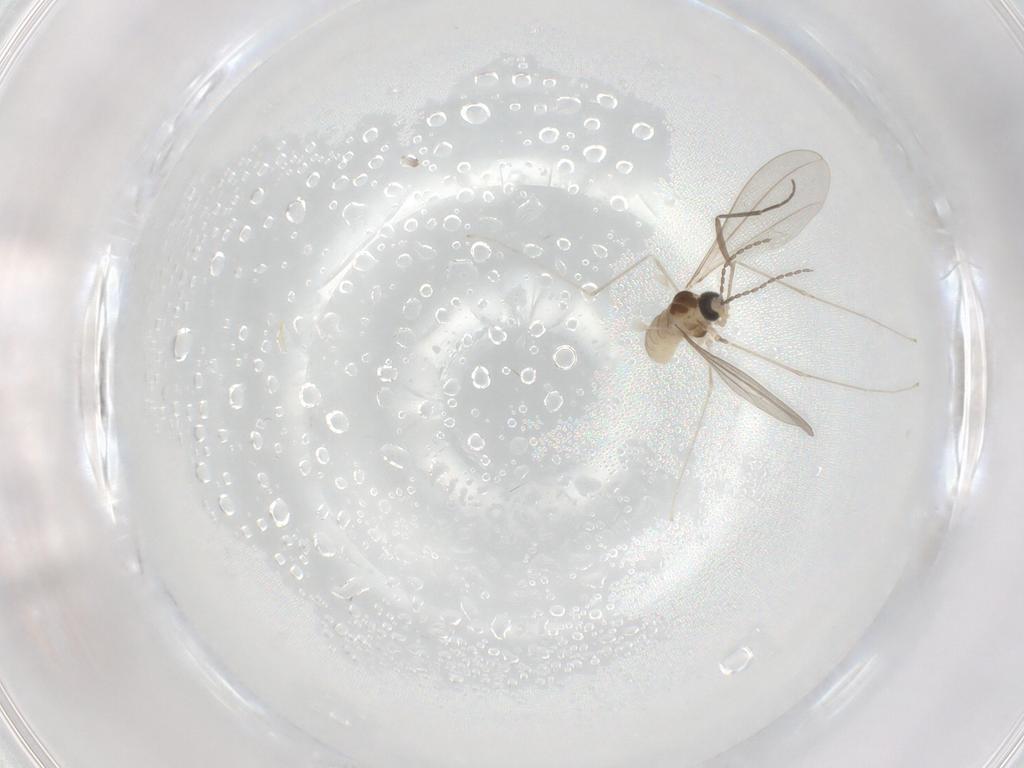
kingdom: Animalia
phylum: Arthropoda
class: Insecta
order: Diptera
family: Cecidomyiidae
